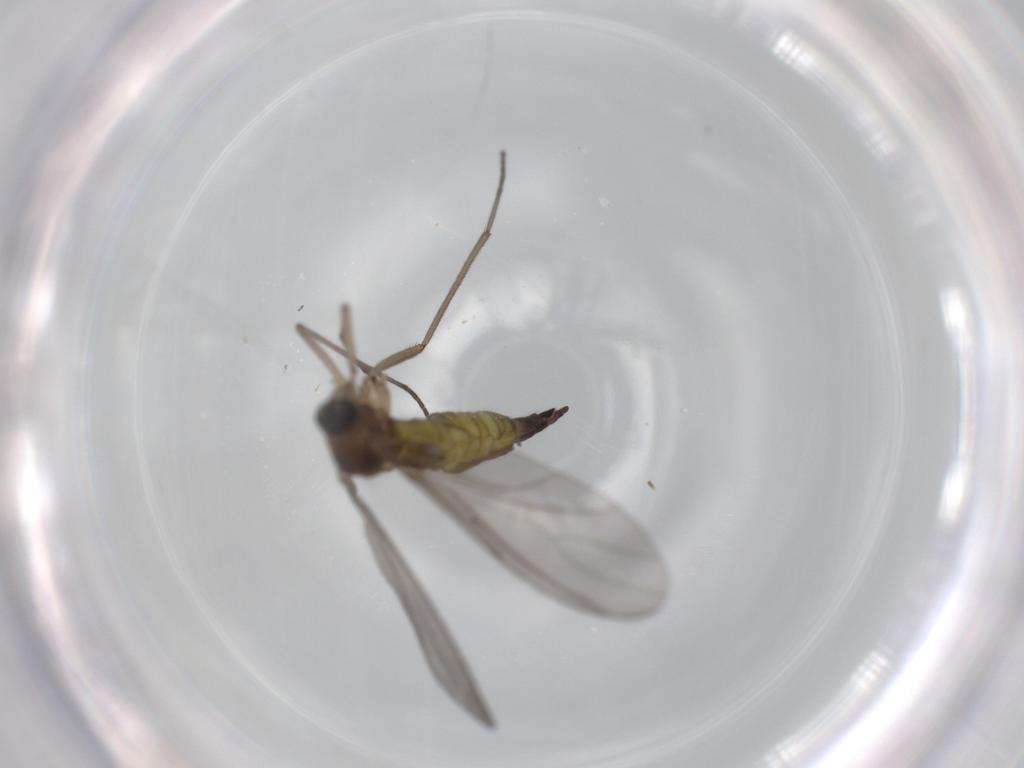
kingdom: Animalia
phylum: Arthropoda
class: Insecta
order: Diptera
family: Sciaridae
